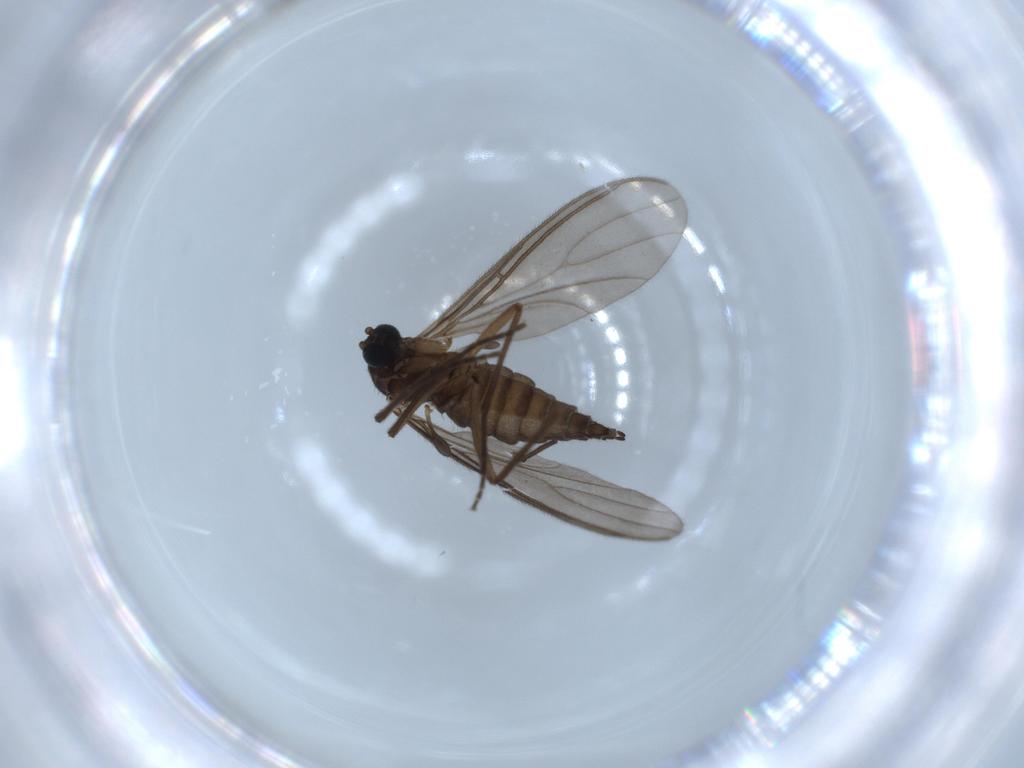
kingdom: Animalia
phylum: Arthropoda
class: Insecta
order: Diptera
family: Sciaridae
